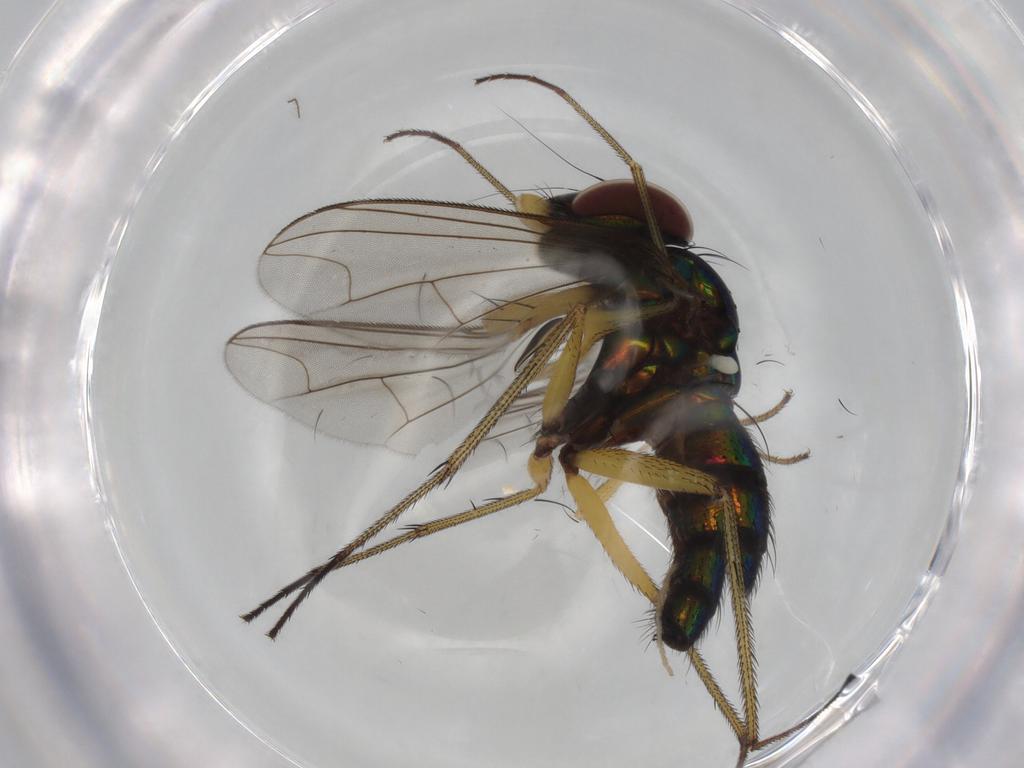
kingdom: Animalia
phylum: Arthropoda
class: Insecta
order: Diptera
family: Dolichopodidae
